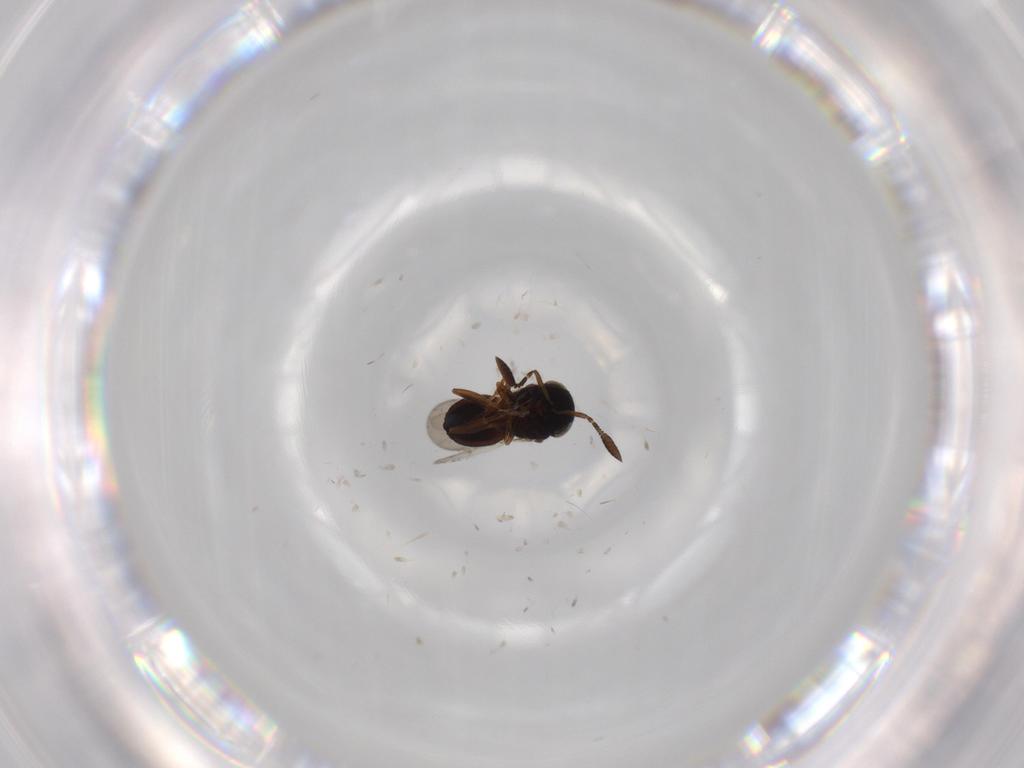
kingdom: Animalia
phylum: Arthropoda
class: Insecta
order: Coleoptera
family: Curculionidae
